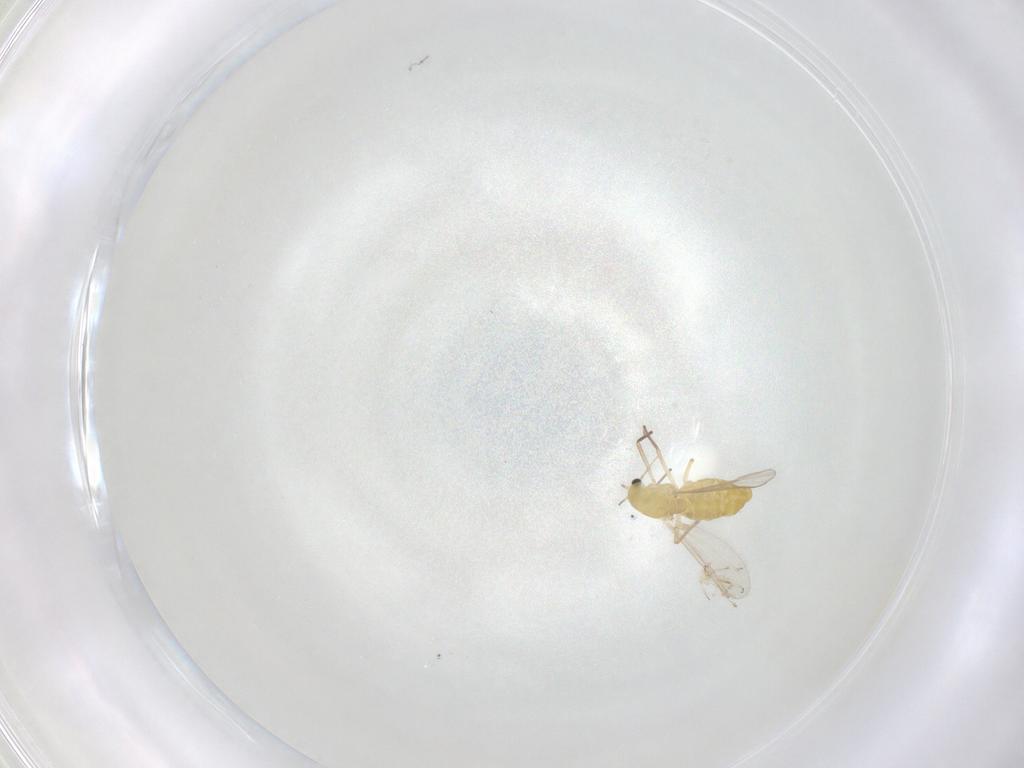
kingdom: Animalia
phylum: Arthropoda
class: Insecta
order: Diptera
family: Chironomidae
